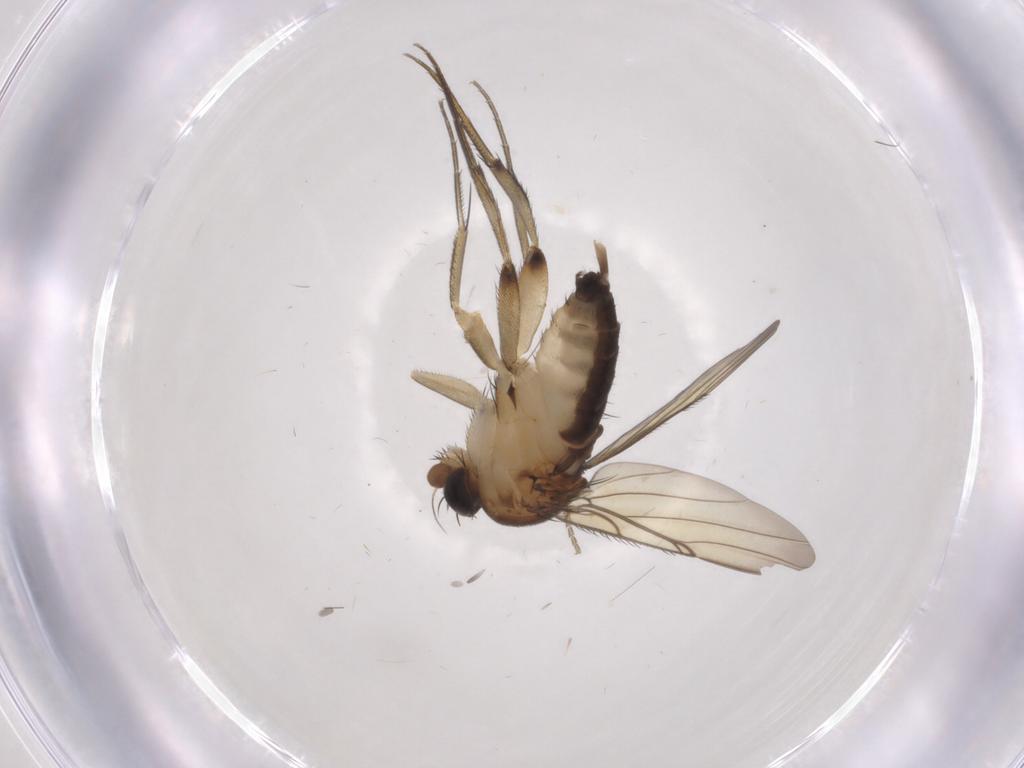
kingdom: Animalia
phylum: Arthropoda
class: Insecta
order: Diptera
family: Phoridae
